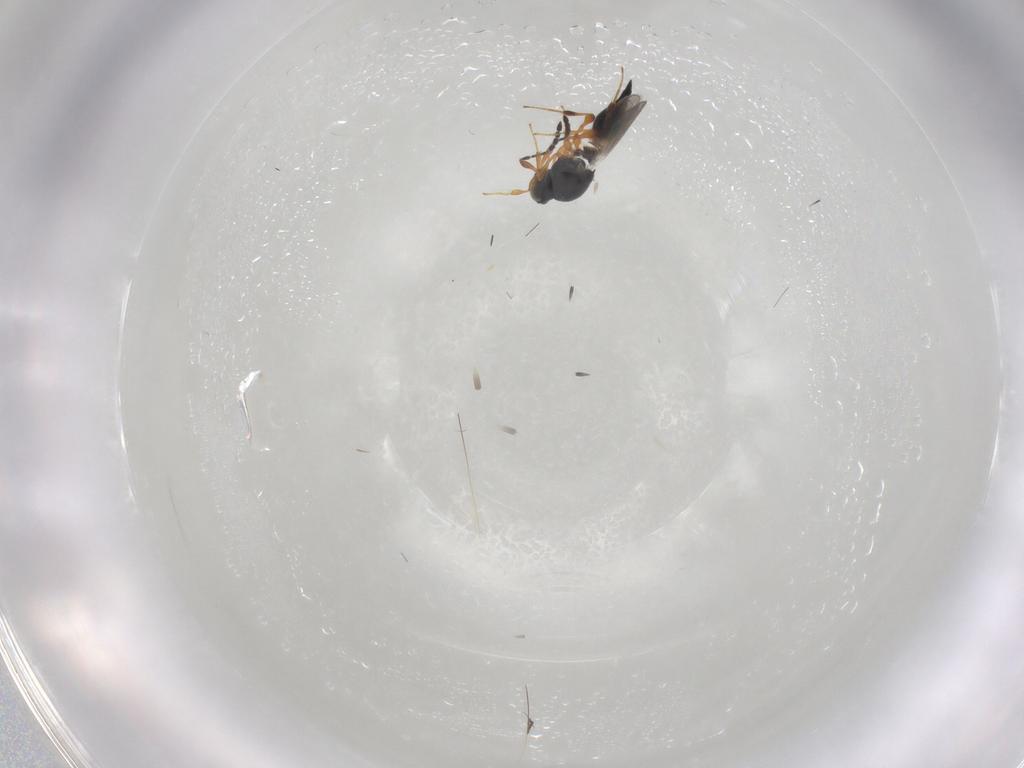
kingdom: Animalia
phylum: Arthropoda
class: Insecta
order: Hymenoptera
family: Platygastridae
